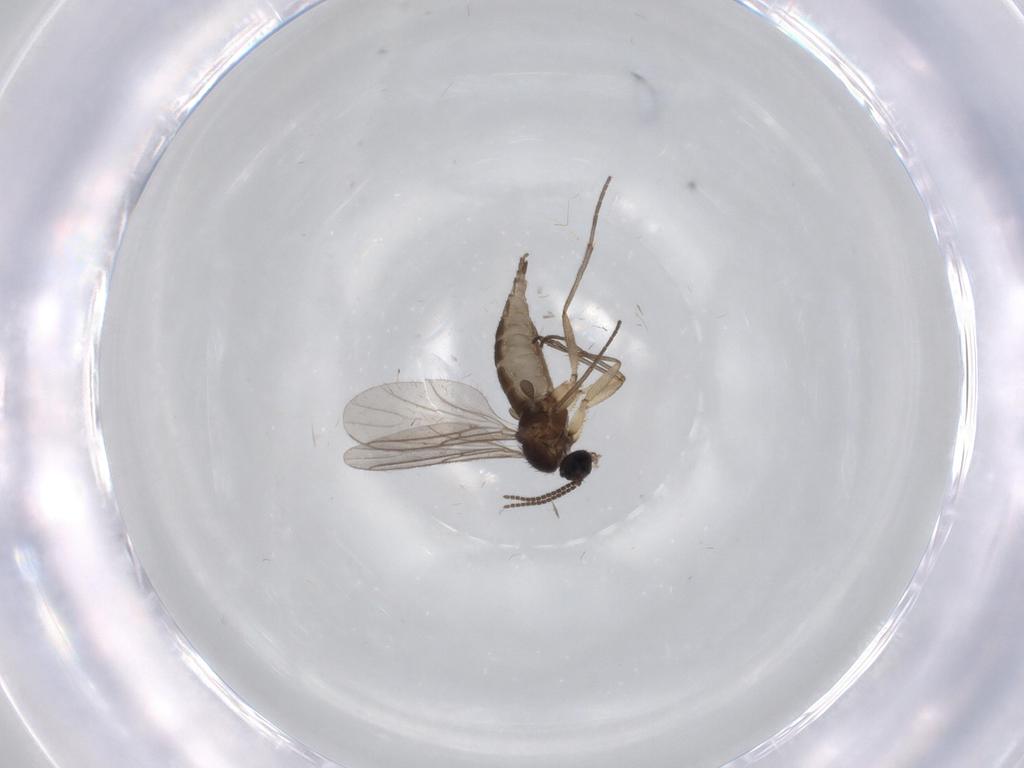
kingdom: Animalia
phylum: Arthropoda
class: Insecta
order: Diptera
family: Sciaridae
